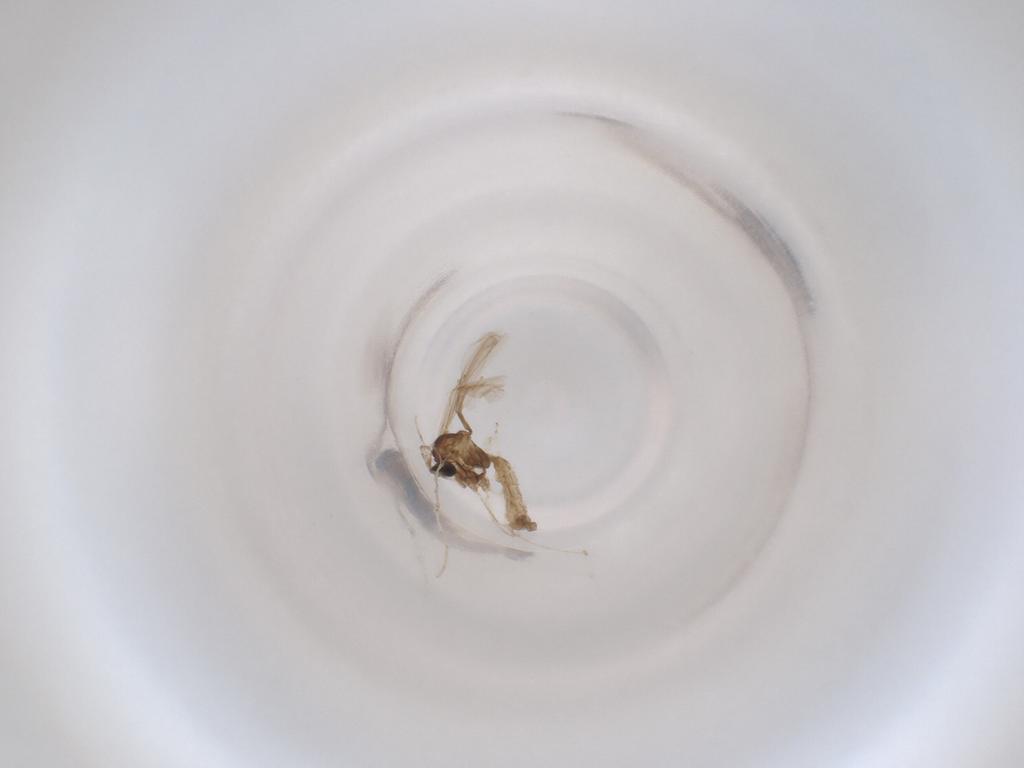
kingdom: Animalia
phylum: Arthropoda
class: Insecta
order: Diptera
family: Cecidomyiidae
